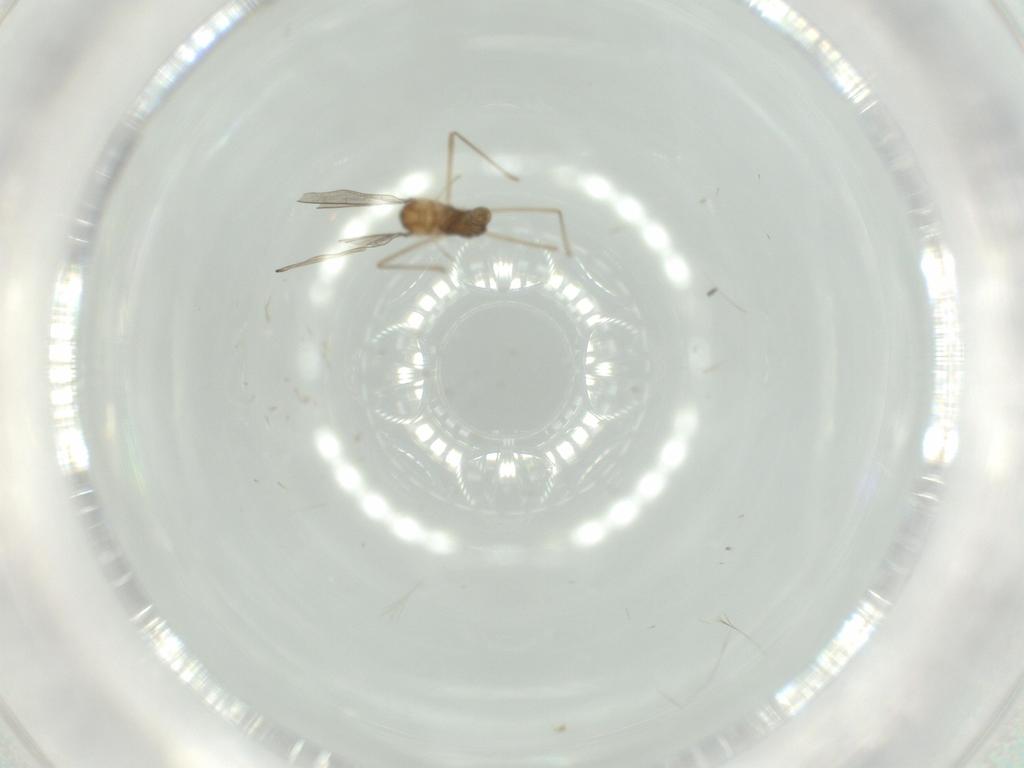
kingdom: Animalia
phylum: Arthropoda
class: Insecta
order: Diptera
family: Cecidomyiidae
